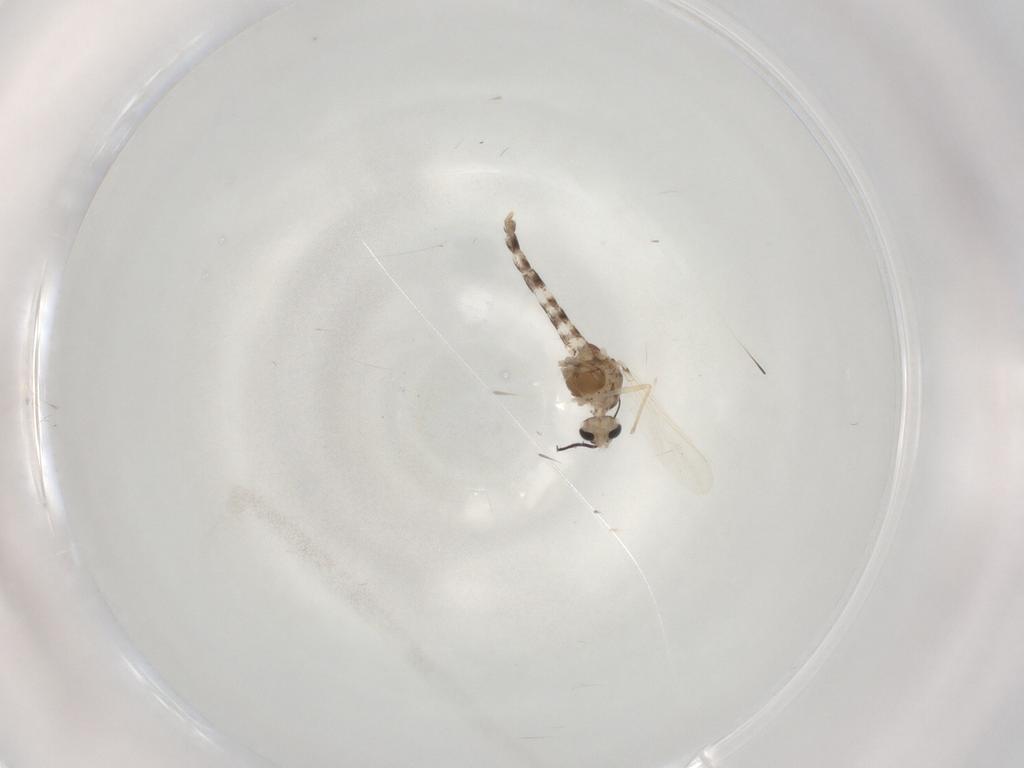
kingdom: Animalia
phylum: Arthropoda
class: Insecta
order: Diptera
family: Chironomidae
